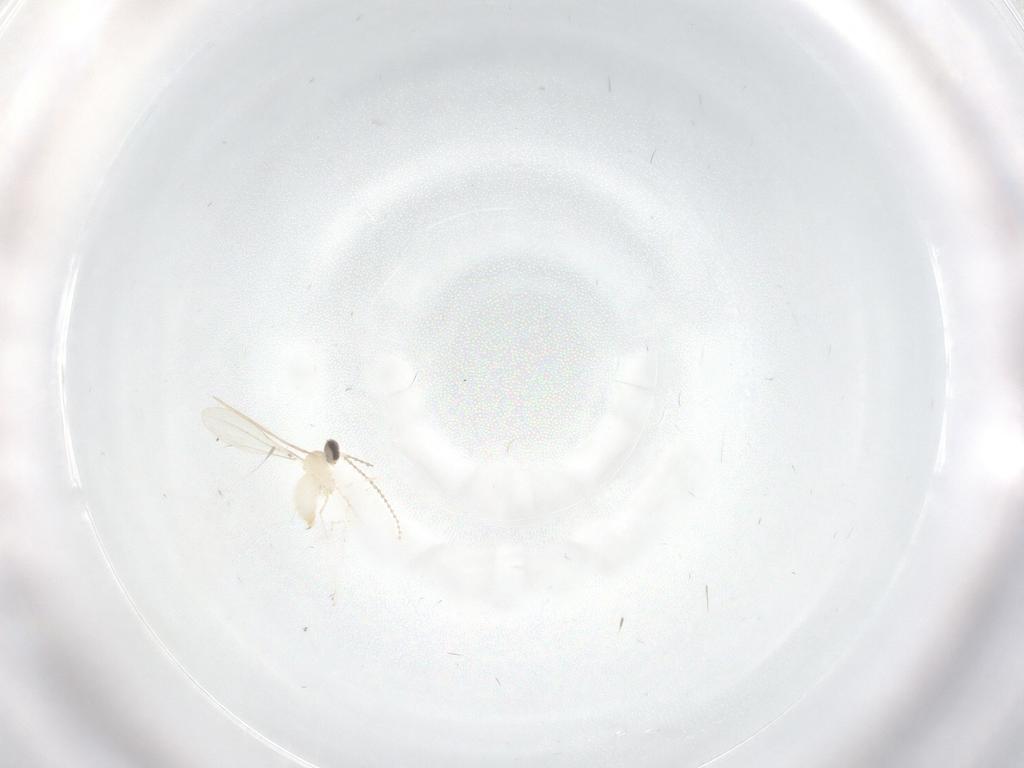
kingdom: Animalia
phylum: Arthropoda
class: Insecta
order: Diptera
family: Cecidomyiidae
